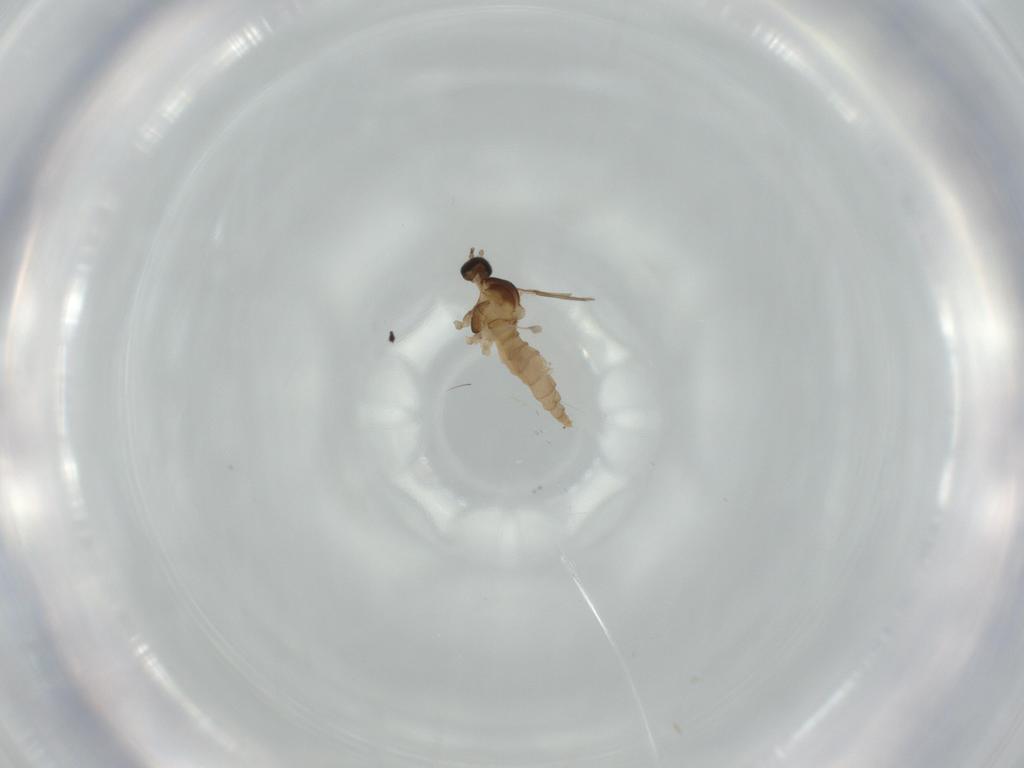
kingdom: Animalia
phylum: Arthropoda
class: Insecta
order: Diptera
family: Cecidomyiidae
